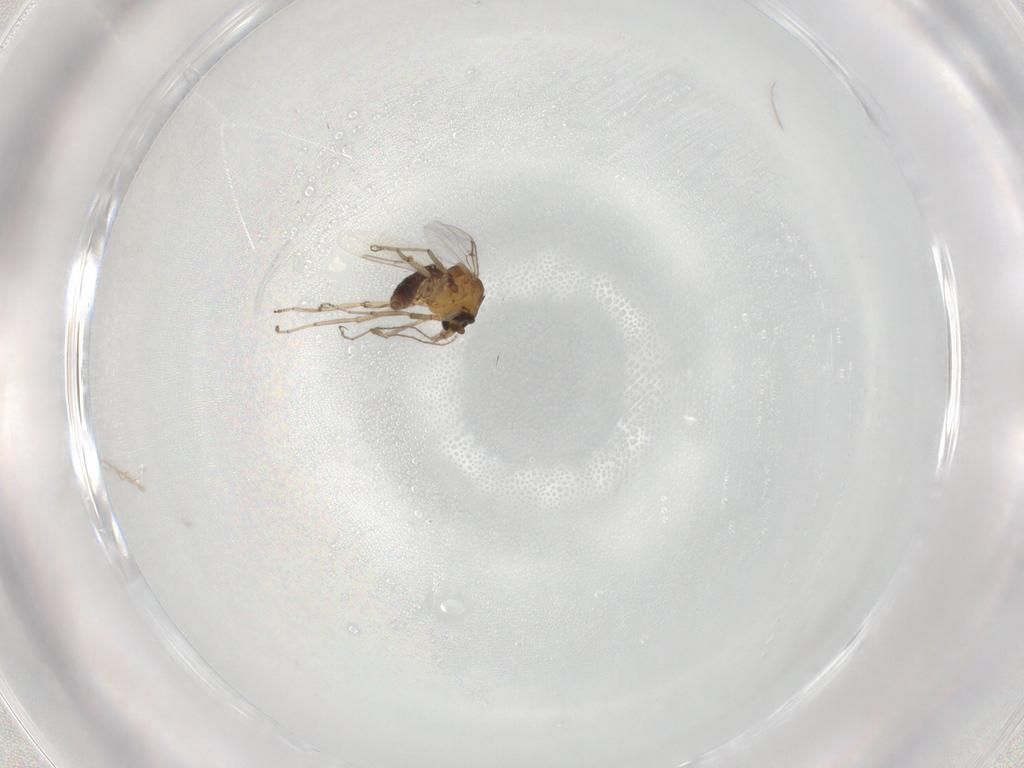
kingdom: Animalia
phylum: Arthropoda
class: Insecta
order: Diptera
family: Ceratopogonidae
